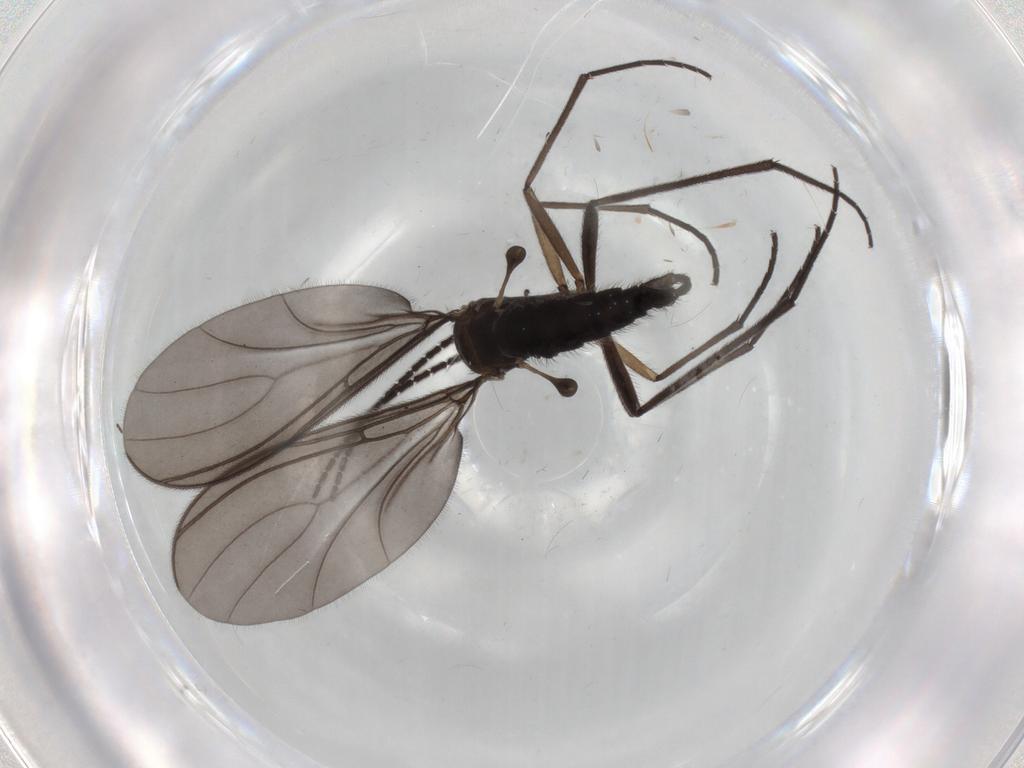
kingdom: Animalia
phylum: Arthropoda
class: Insecta
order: Diptera
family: Sciaridae
